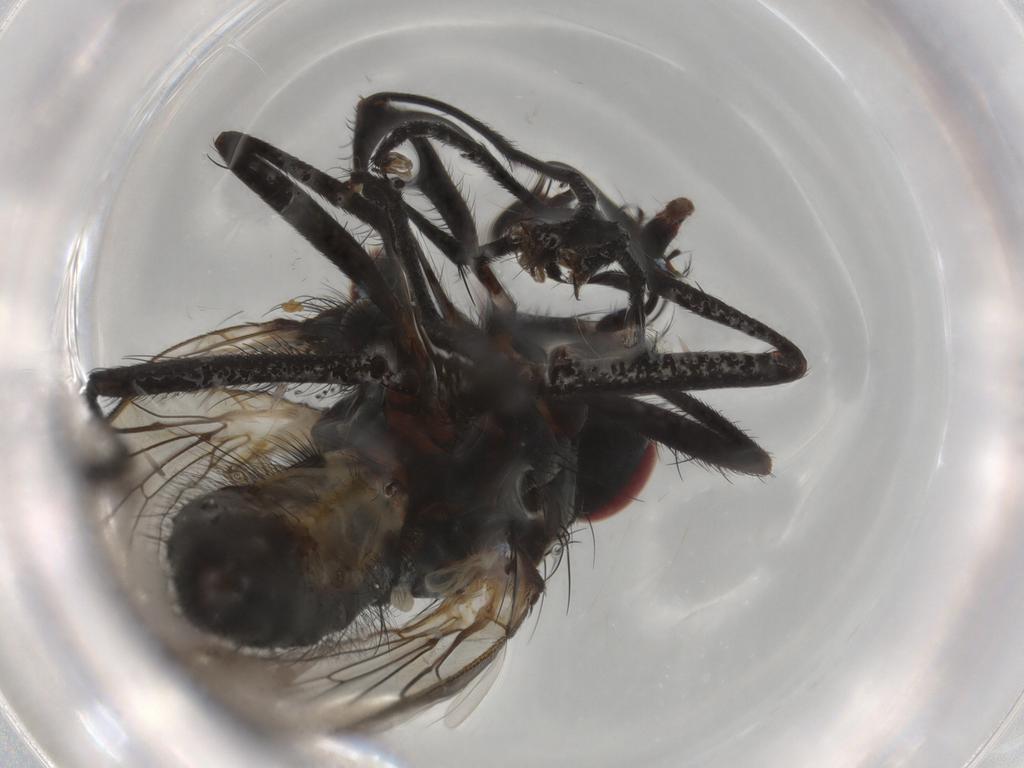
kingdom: Animalia
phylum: Arthropoda
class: Insecta
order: Diptera
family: Anthomyiidae
